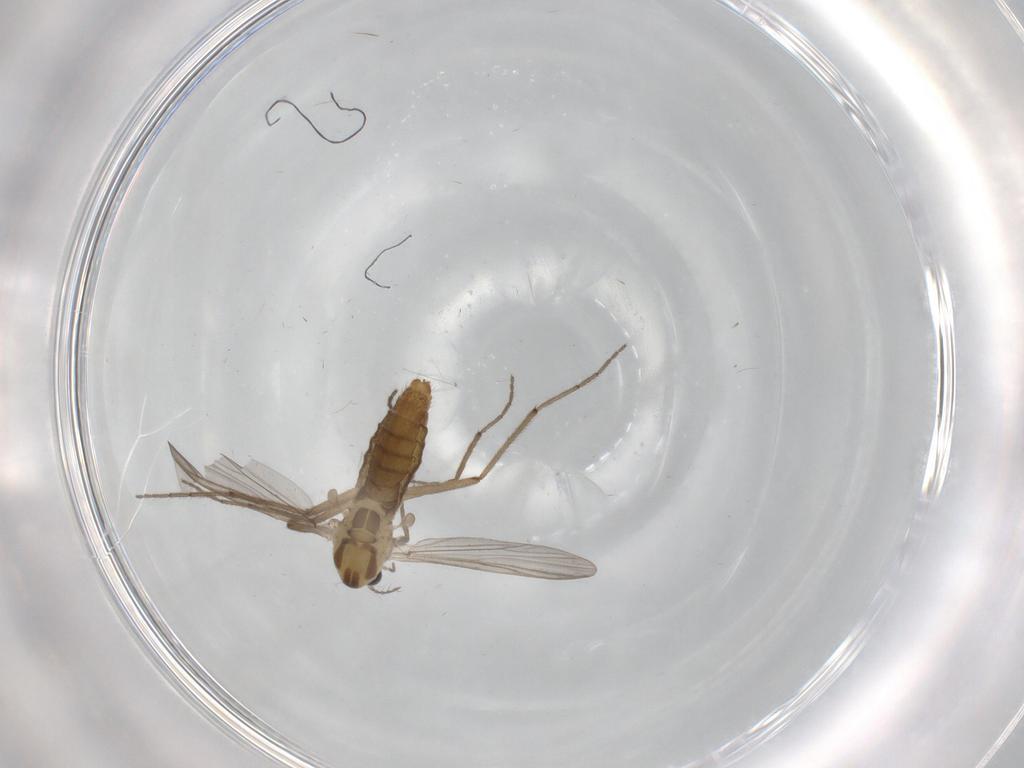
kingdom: Animalia
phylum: Arthropoda
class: Insecta
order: Diptera
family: Chironomidae
